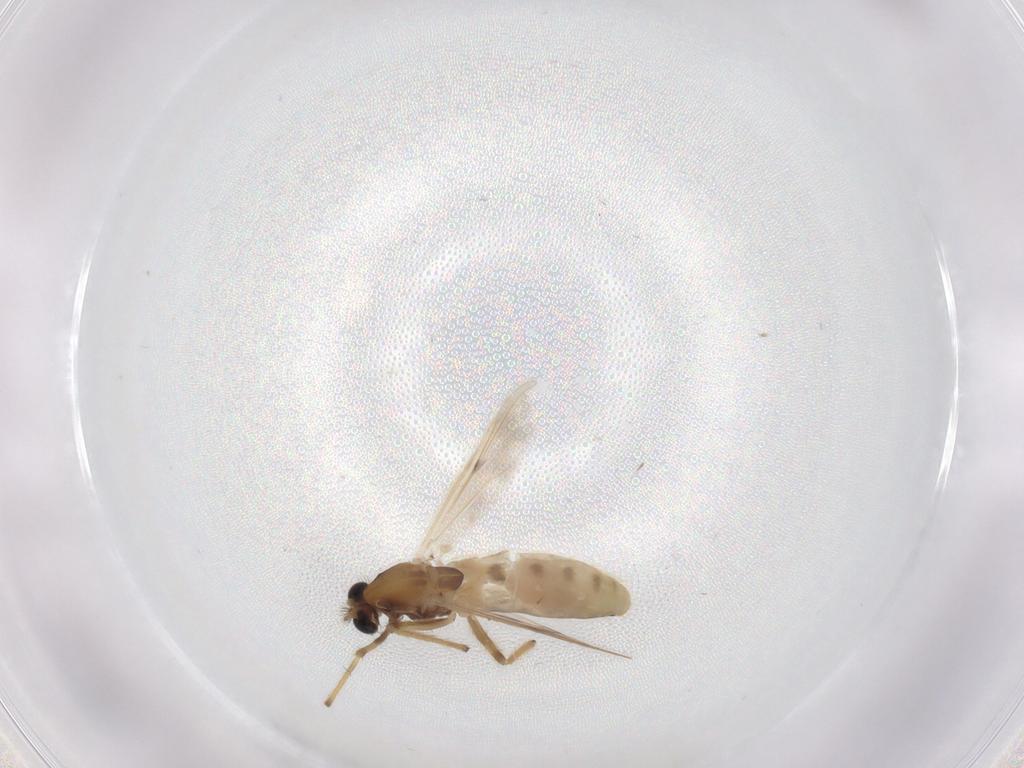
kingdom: Animalia
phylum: Arthropoda
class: Insecta
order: Diptera
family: Chironomidae
